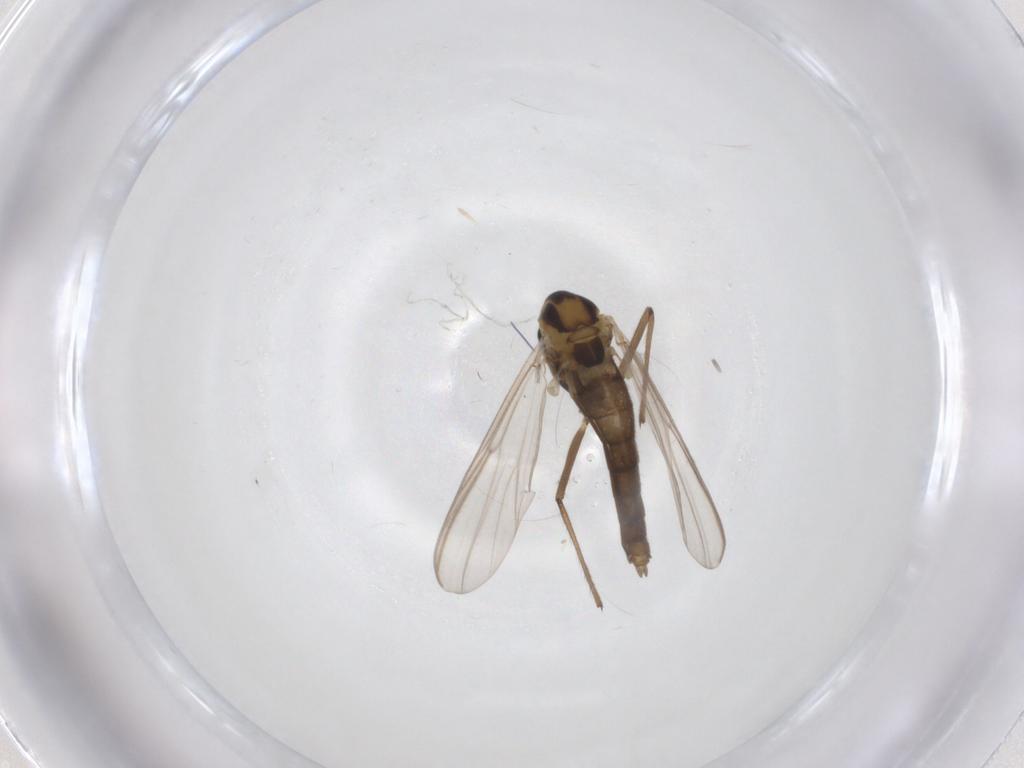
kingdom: Animalia
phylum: Arthropoda
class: Insecta
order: Diptera
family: Chironomidae
